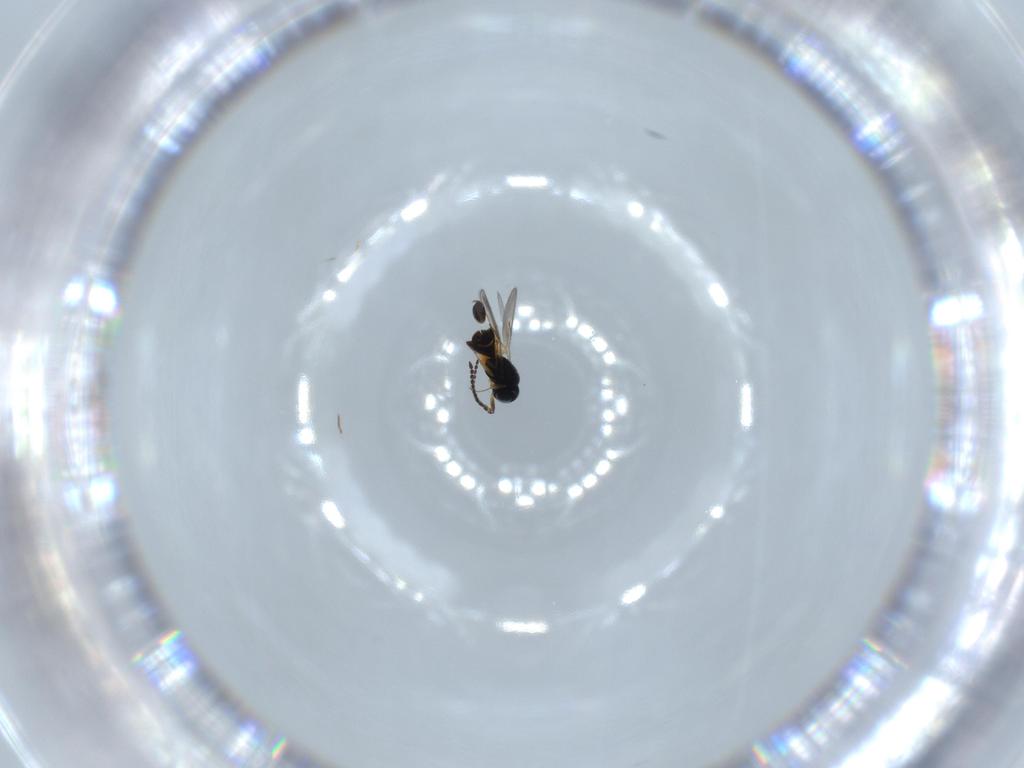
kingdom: Animalia
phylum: Arthropoda
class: Insecta
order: Hymenoptera
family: Scelionidae
